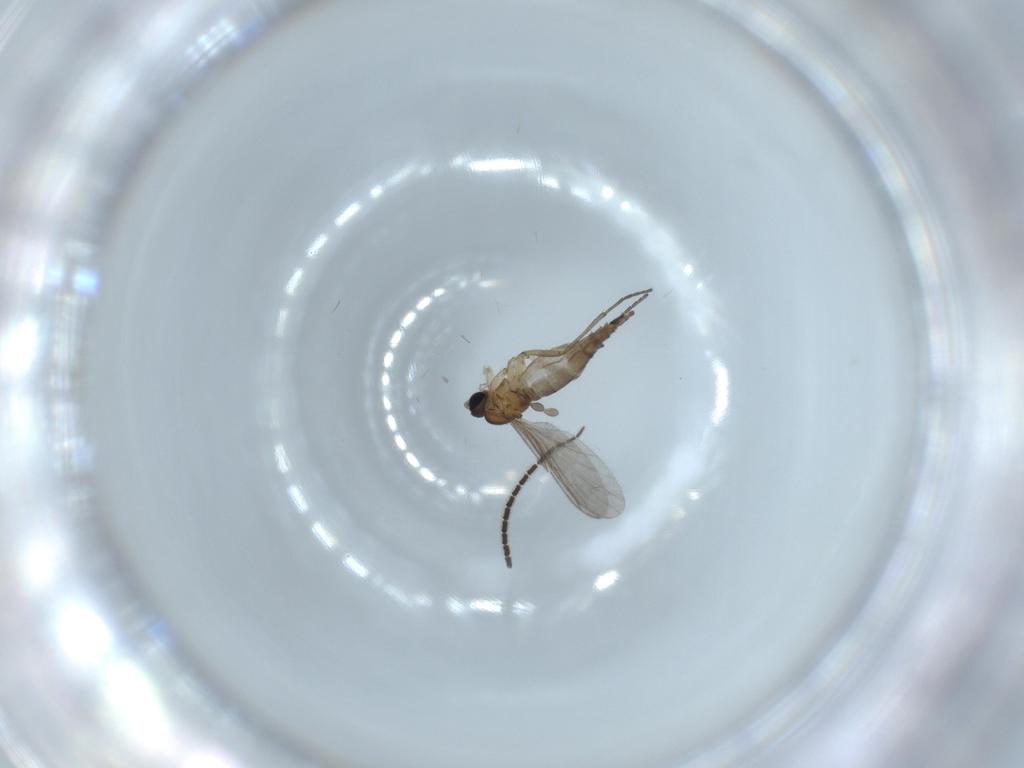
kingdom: Animalia
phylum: Arthropoda
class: Insecta
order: Diptera
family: Sciaridae
